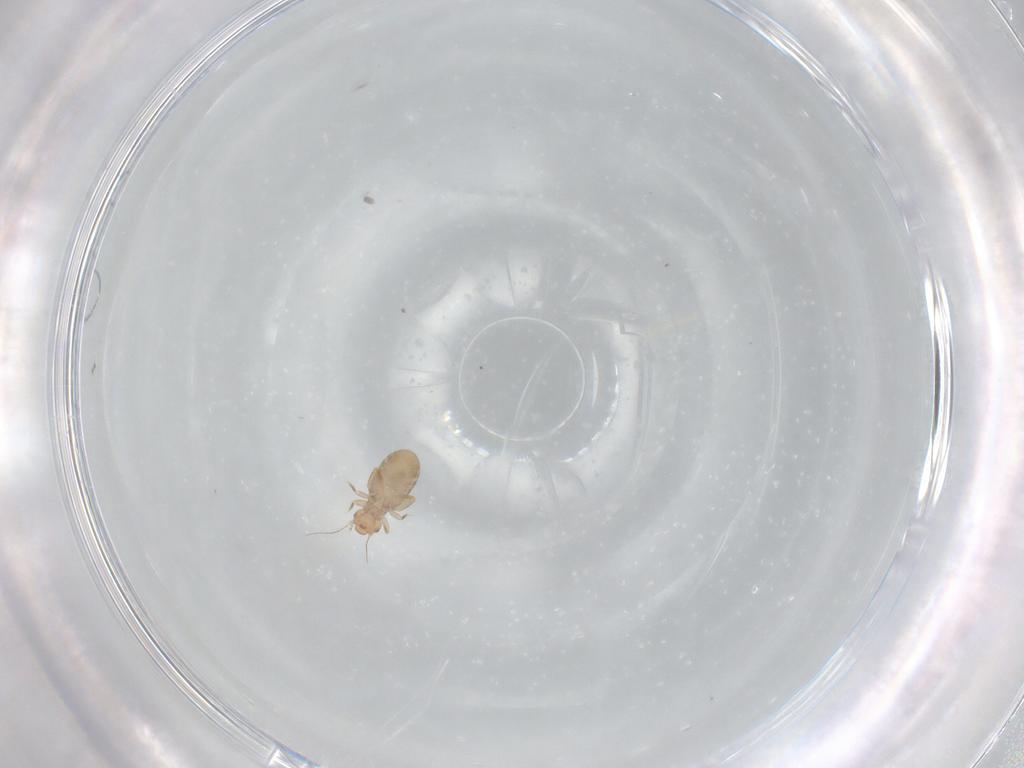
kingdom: Animalia
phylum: Arthropoda
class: Insecta
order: Psocodea
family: Liposcelididae
